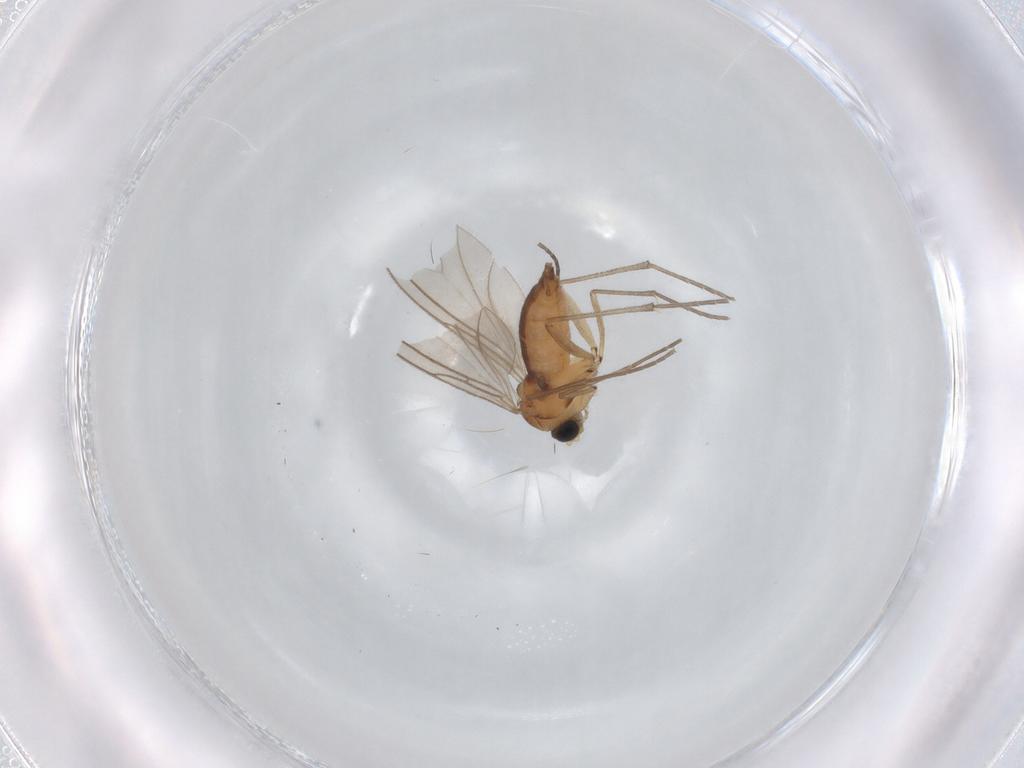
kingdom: Animalia
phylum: Arthropoda
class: Insecta
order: Diptera
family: Sciaridae
